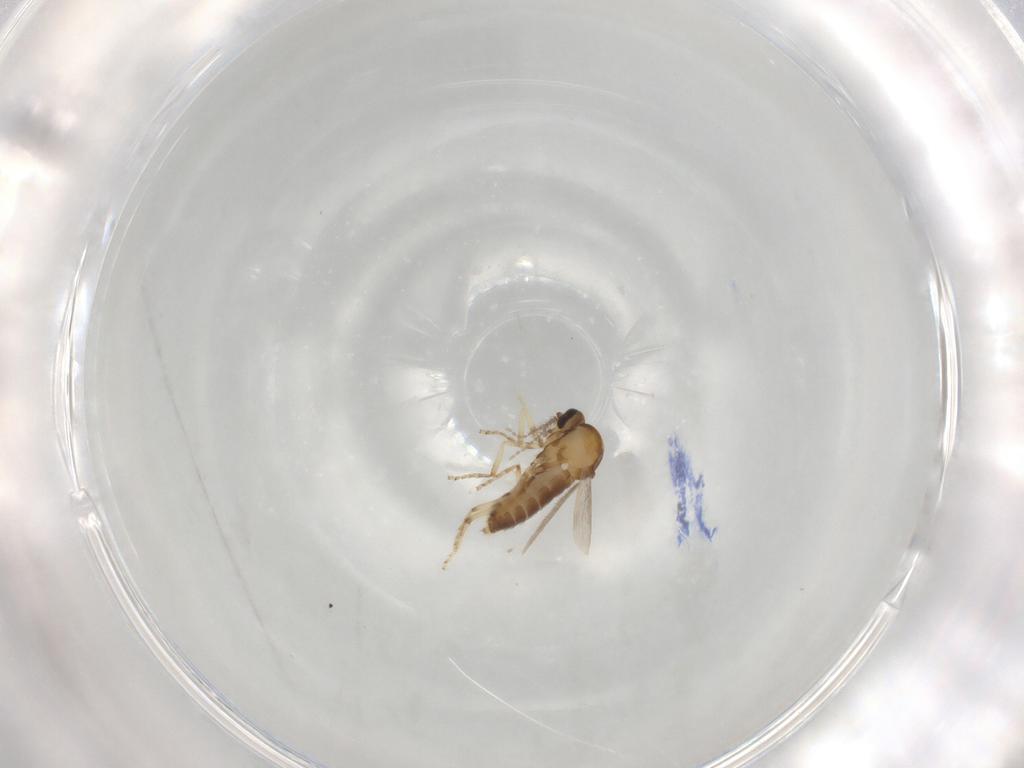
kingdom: Animalia
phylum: Arthropoda
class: Insecta
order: Diptera
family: Ceratopogonidae
